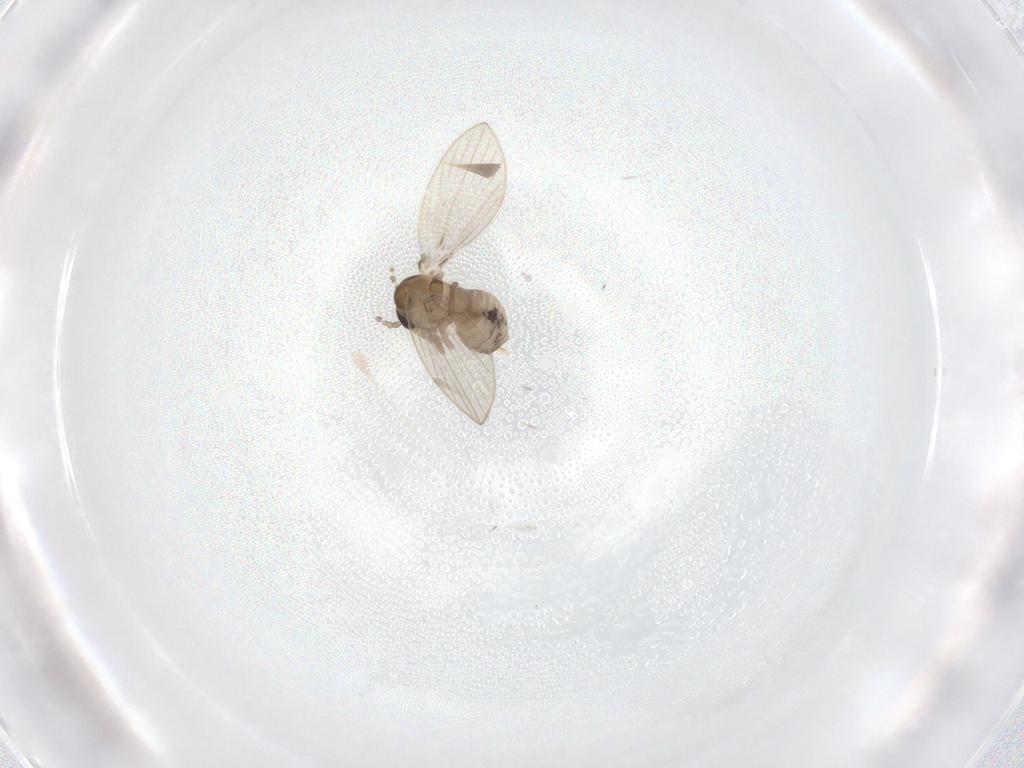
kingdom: Animalia
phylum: Arthropoda
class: Insecta
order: Diptera
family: Psychodidae
